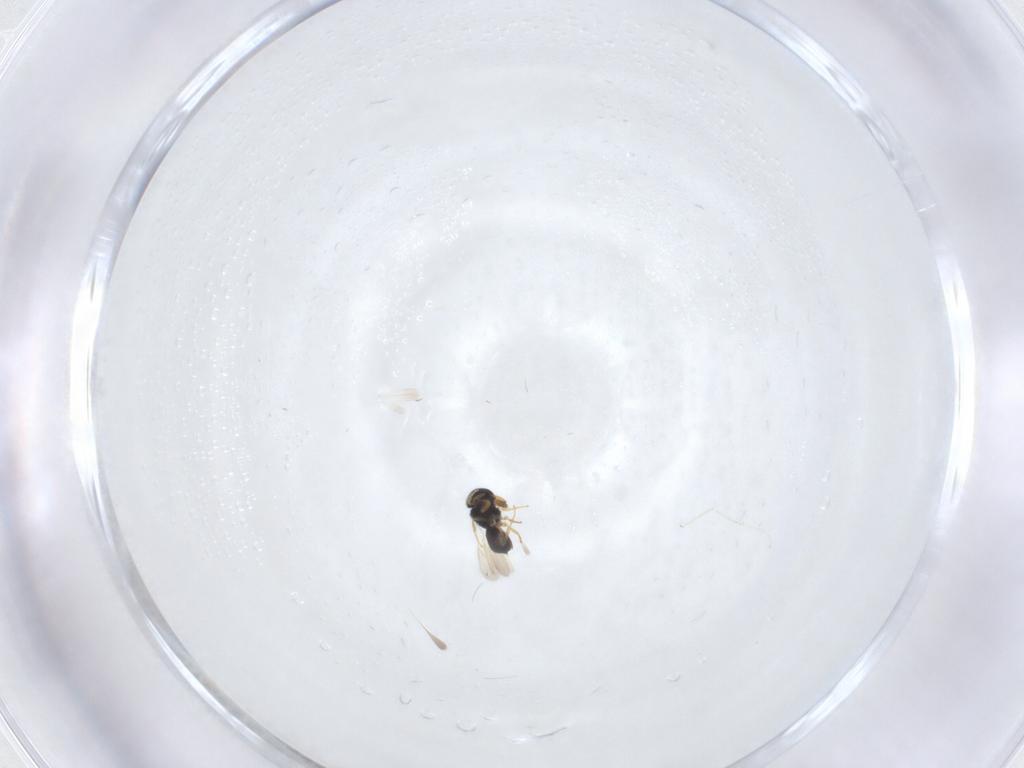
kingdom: Animalia
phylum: Arthropoda
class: Insecta
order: Hymenoptera
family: Scelionidae
